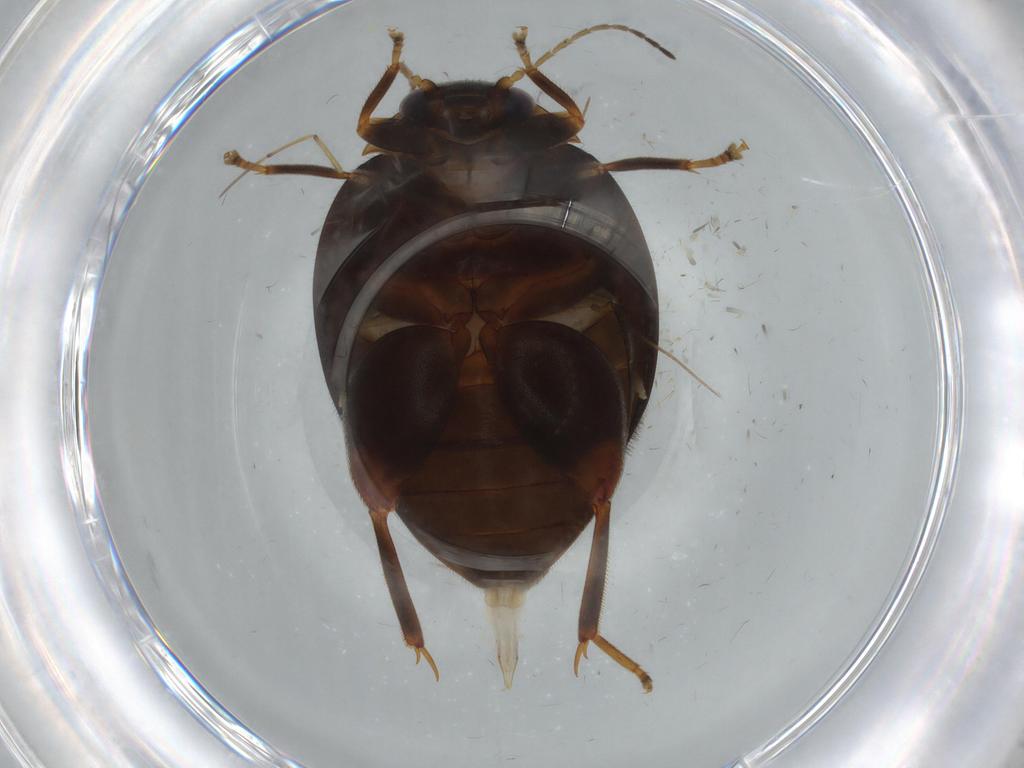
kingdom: Animalia
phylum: Arthropoda
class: Insecta
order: Coleoptera
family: Scirtidae
